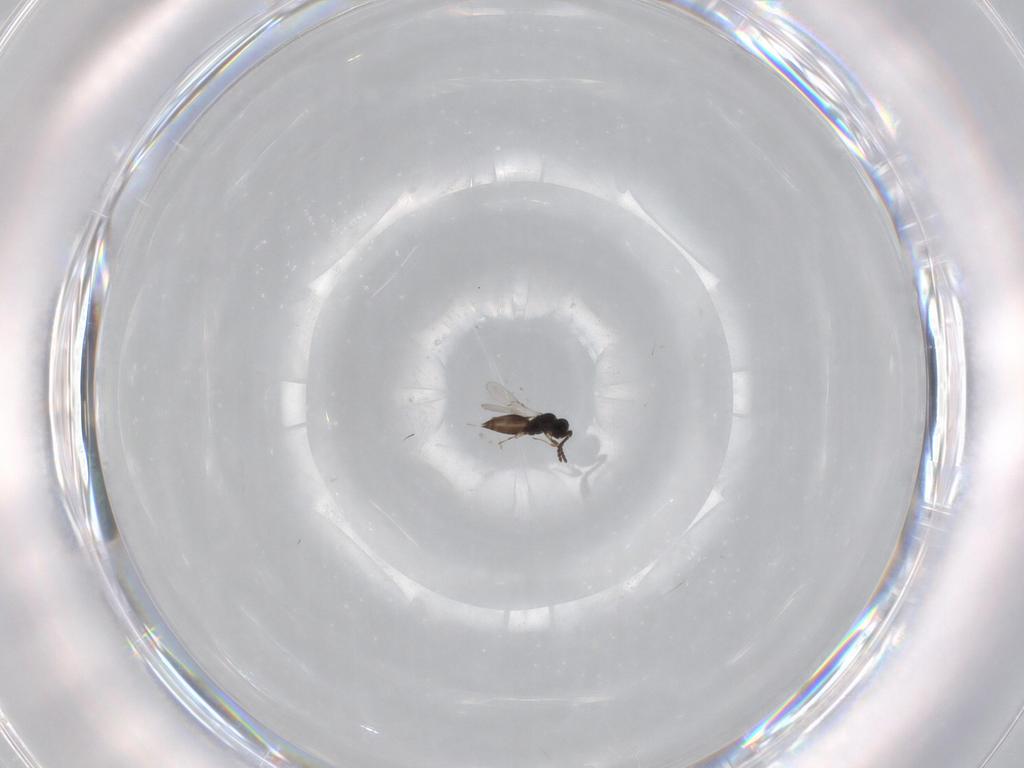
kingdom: Animalia
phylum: Arthropoda
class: Insecta
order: Hymenoptera
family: Scelionidae
